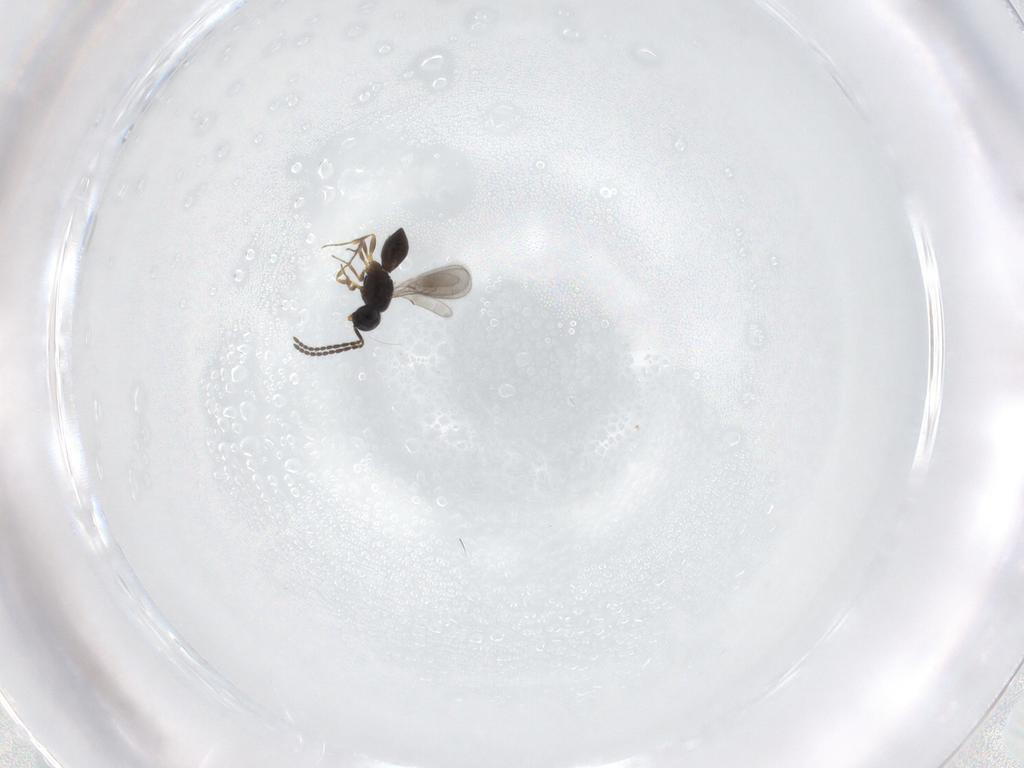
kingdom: Animalia
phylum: Arthropoda
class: Insecta
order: Hymenoptera
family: Scelionidae
